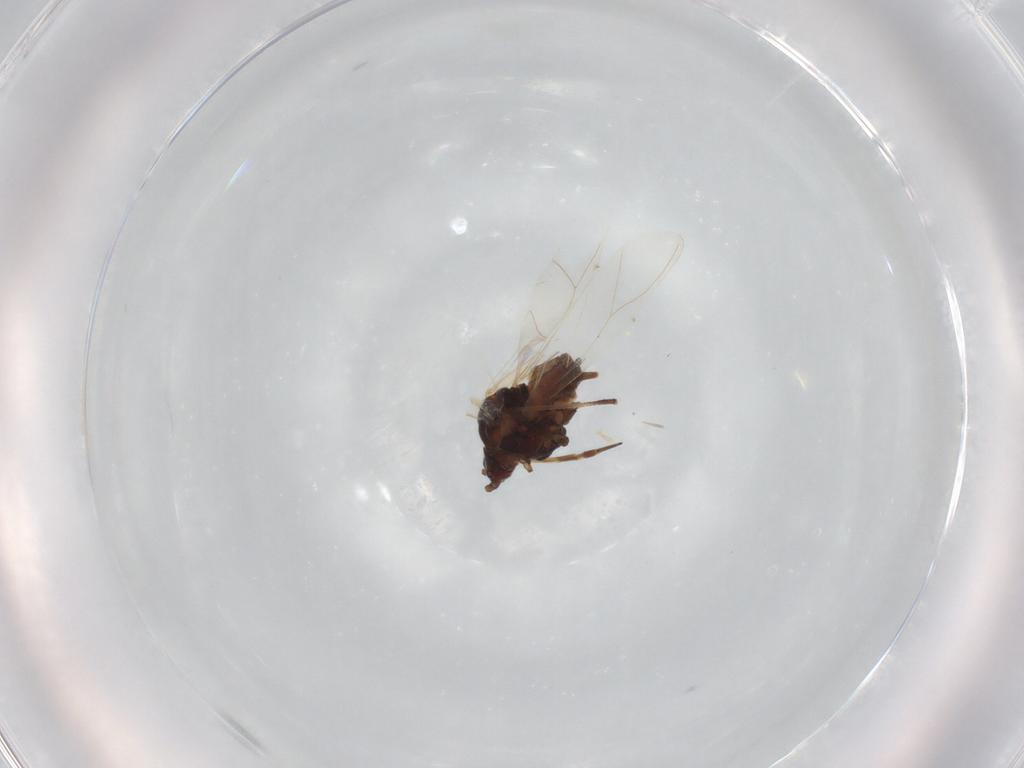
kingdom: Animalia
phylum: Arthropoda
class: Insecta
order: Hemiptera
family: Aphididae
